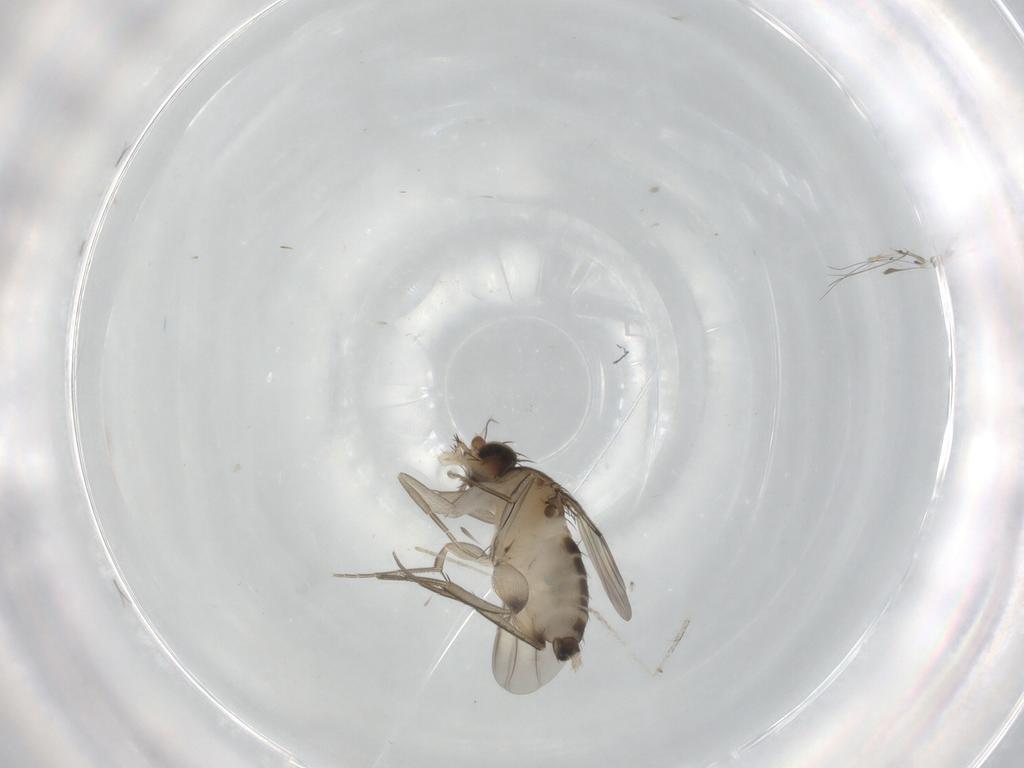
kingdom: Animalia
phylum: Arthropoda
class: Insecta
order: Diptera
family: Phoridae
